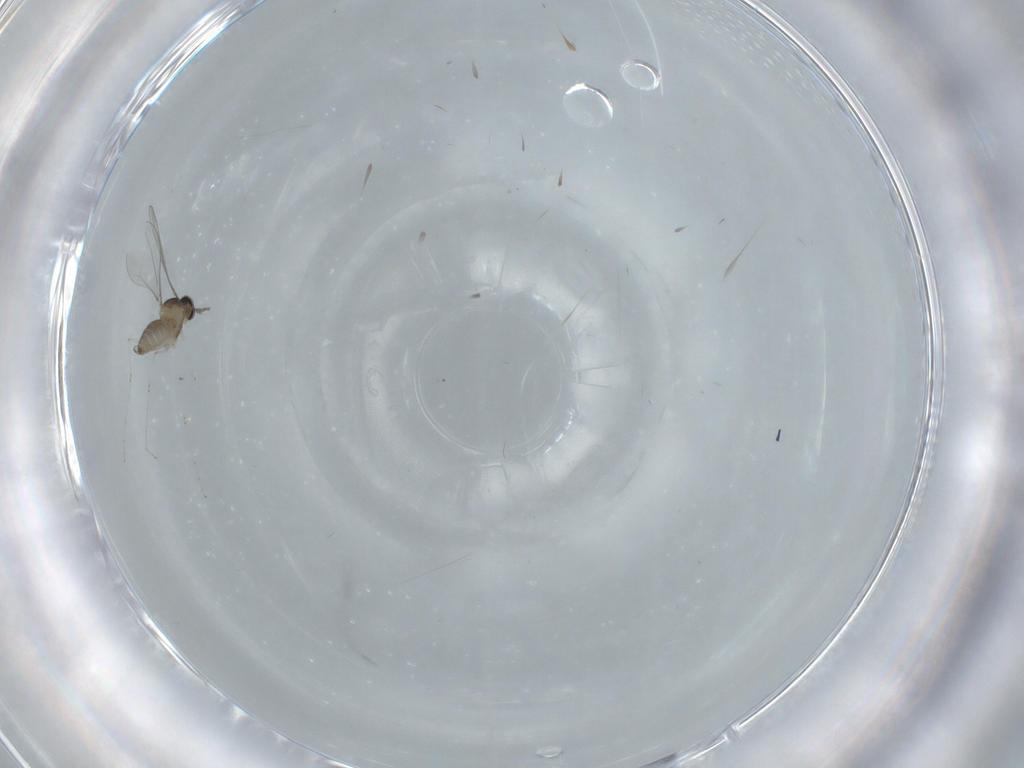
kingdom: Animalia
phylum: Arthropoda
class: Insecta
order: Diptera
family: Cecidomyiidae
